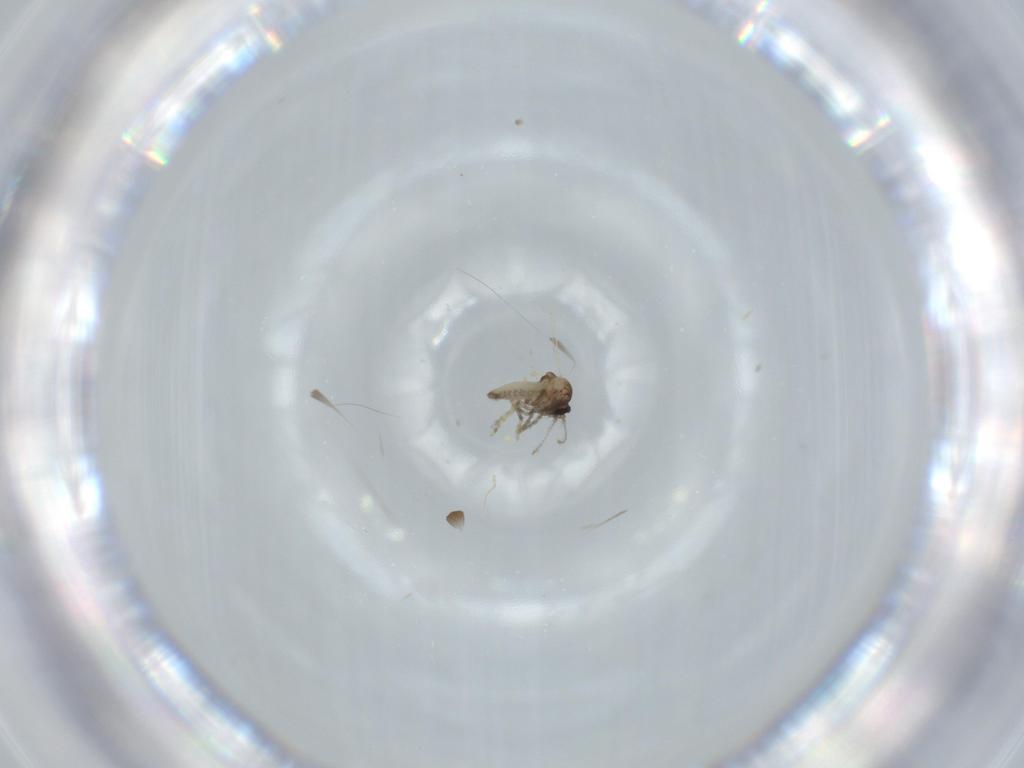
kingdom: Animalia
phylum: Arthropoda
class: Insecta
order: Diptera
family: Ceratopogonidae
